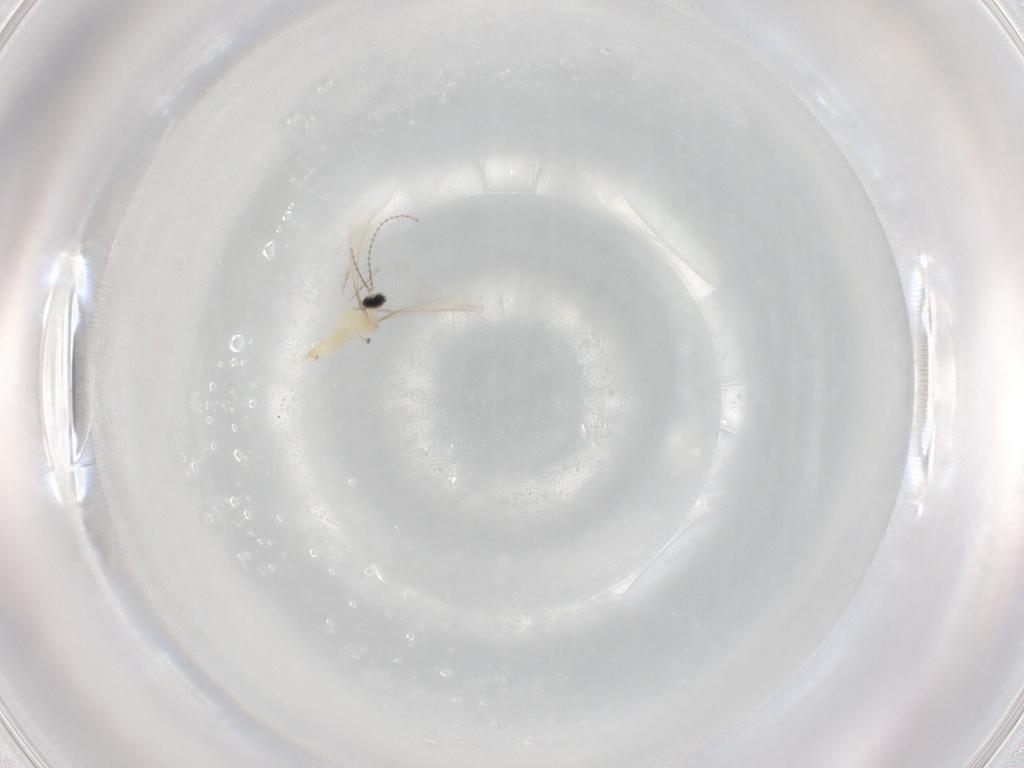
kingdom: Animalia
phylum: Arthropoda
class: Insecta
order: Diptera
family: Cecidomyiidae
